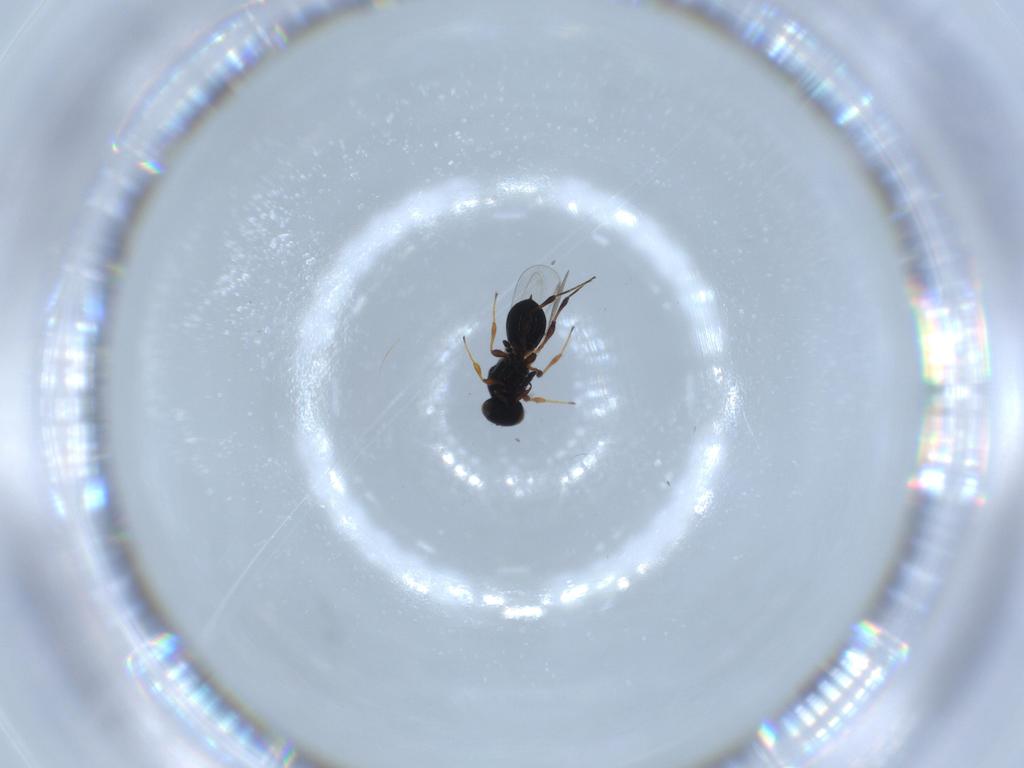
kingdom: Animalia
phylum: Arthropoda
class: Insecta
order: Hymenoptera
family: Platygastridae
